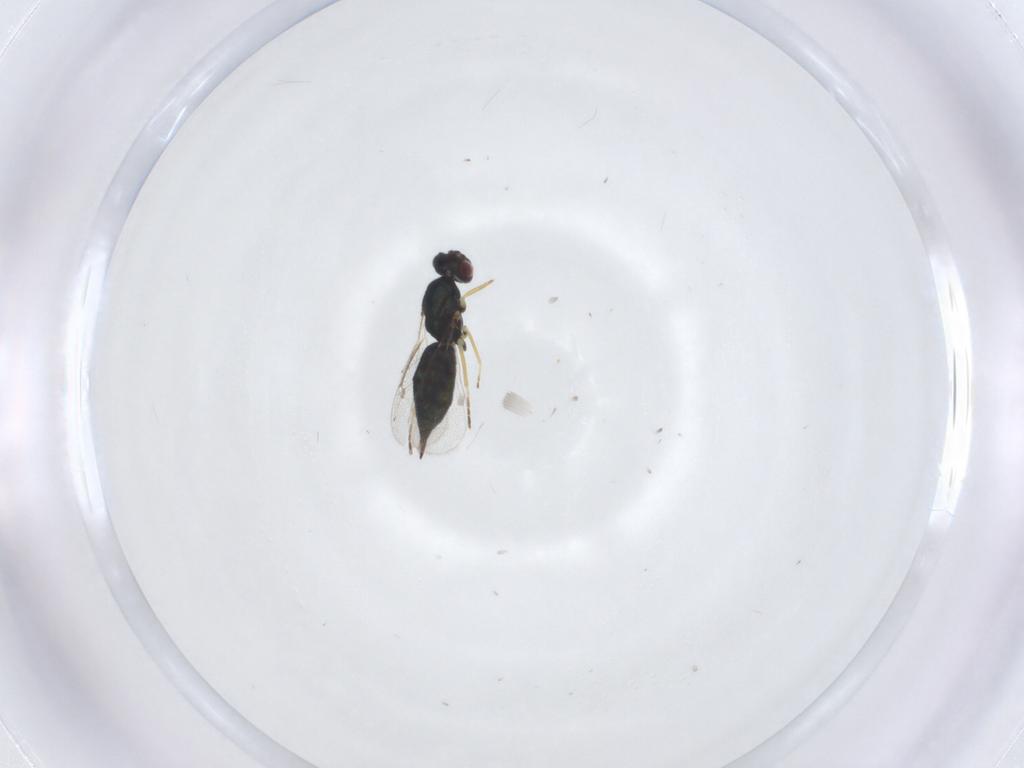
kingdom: Animalia
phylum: Arthropoda
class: Insecta
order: Hymenoptera
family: Eulophidae
